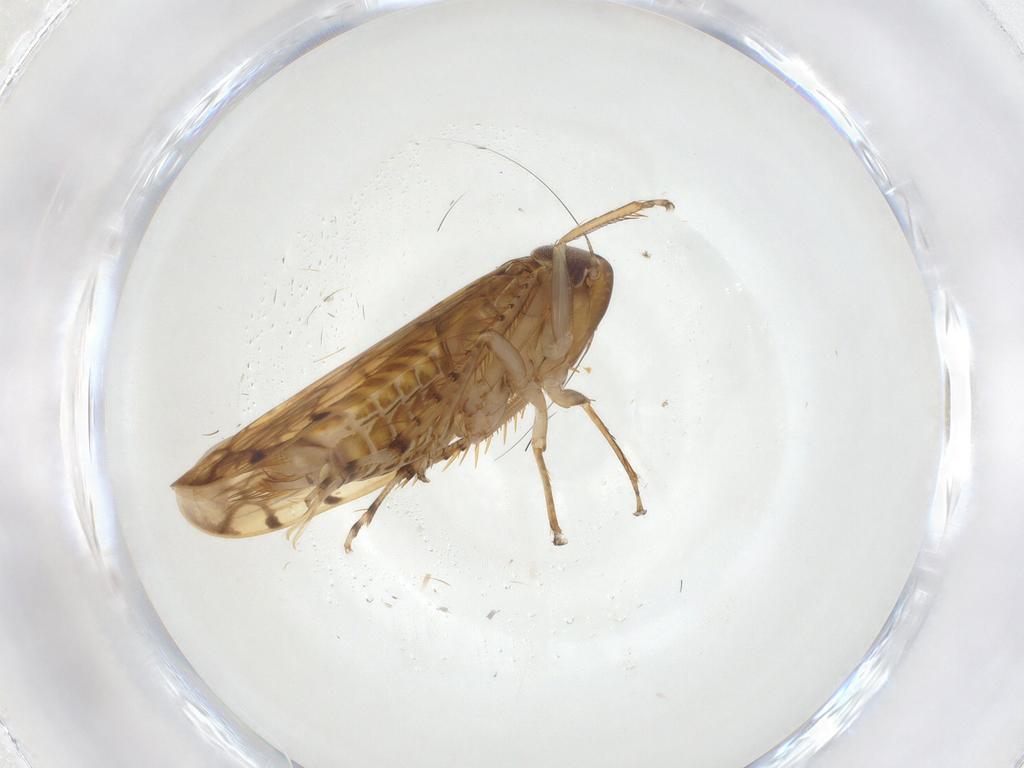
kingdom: Animalia
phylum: Arthropoda
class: Insecta
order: Hemiptera
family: Cicadellidae
